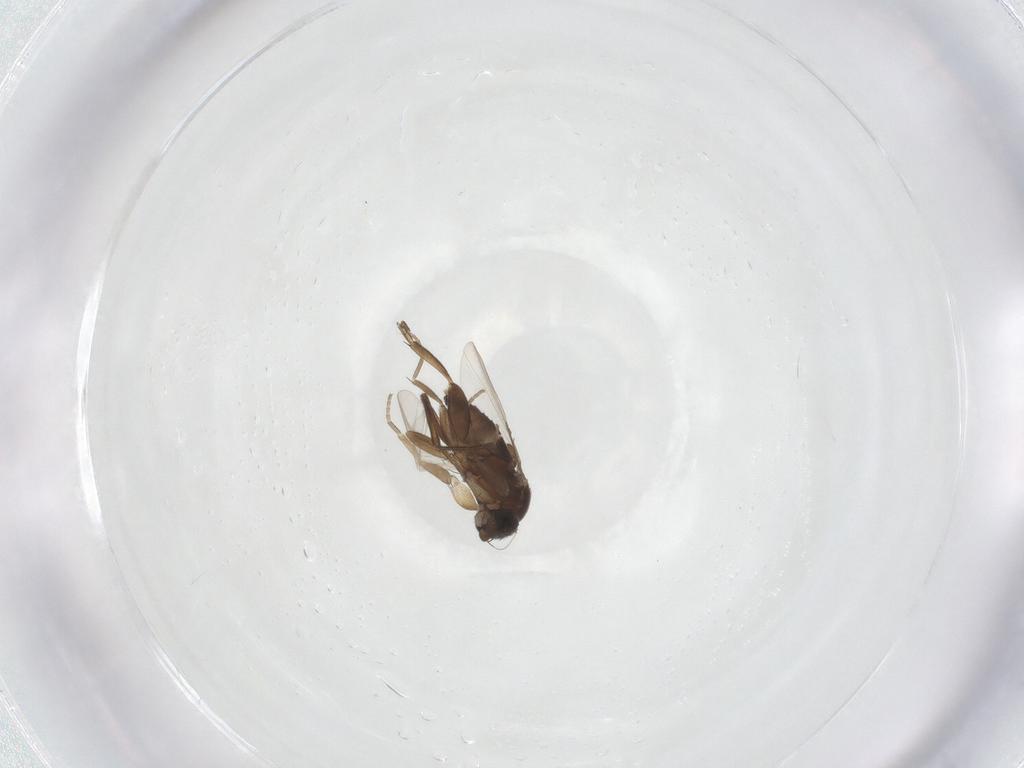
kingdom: Animalia
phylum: Arthropoda
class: Insecta
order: Diptera
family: Phoridae
